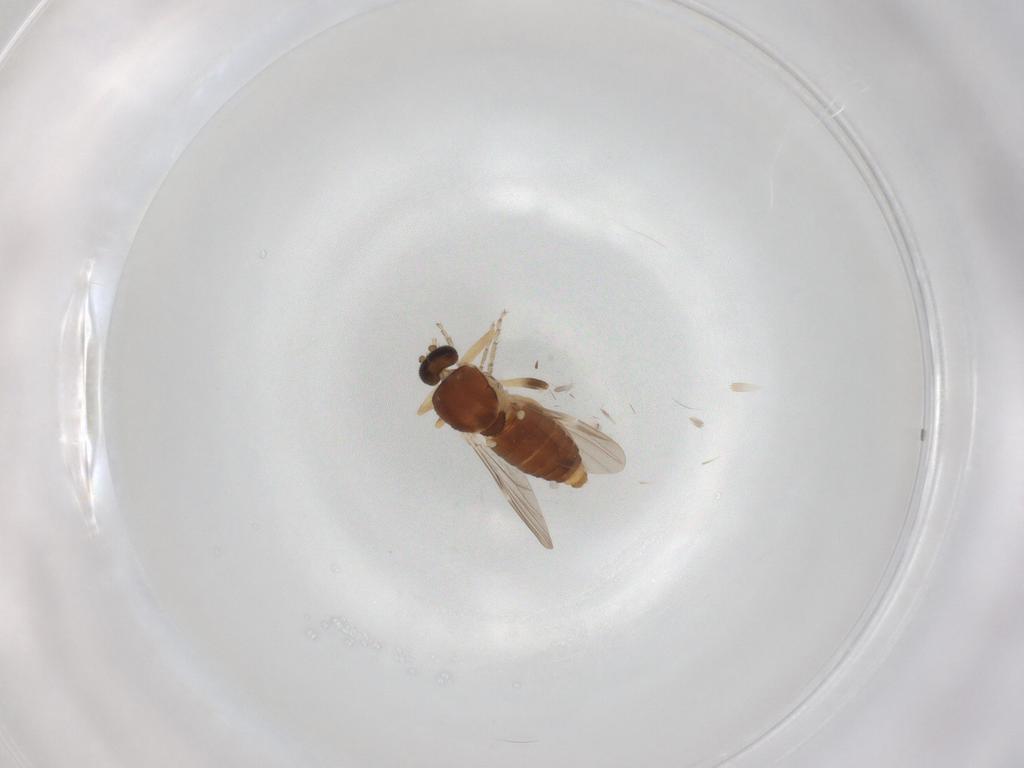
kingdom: Animalia
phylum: Arthropoda
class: Insecta
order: Diptera
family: Ceratopogonidae
